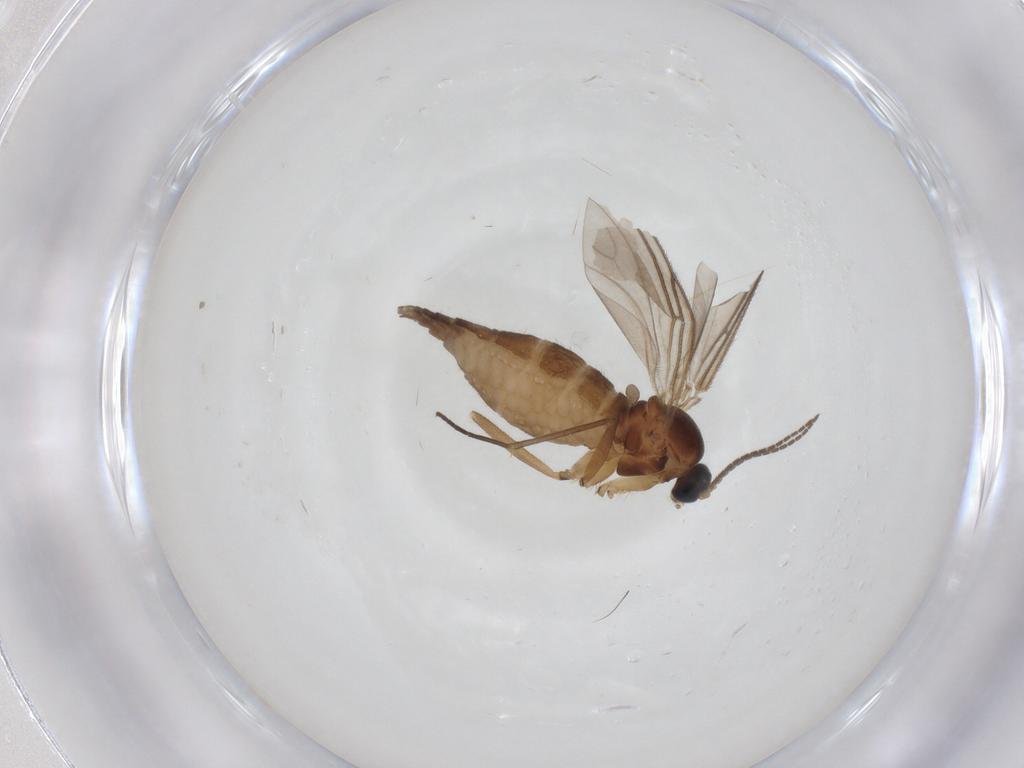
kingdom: Animalia
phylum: Arthropoda
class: Insecta
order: Diptera
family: Sciaridae
